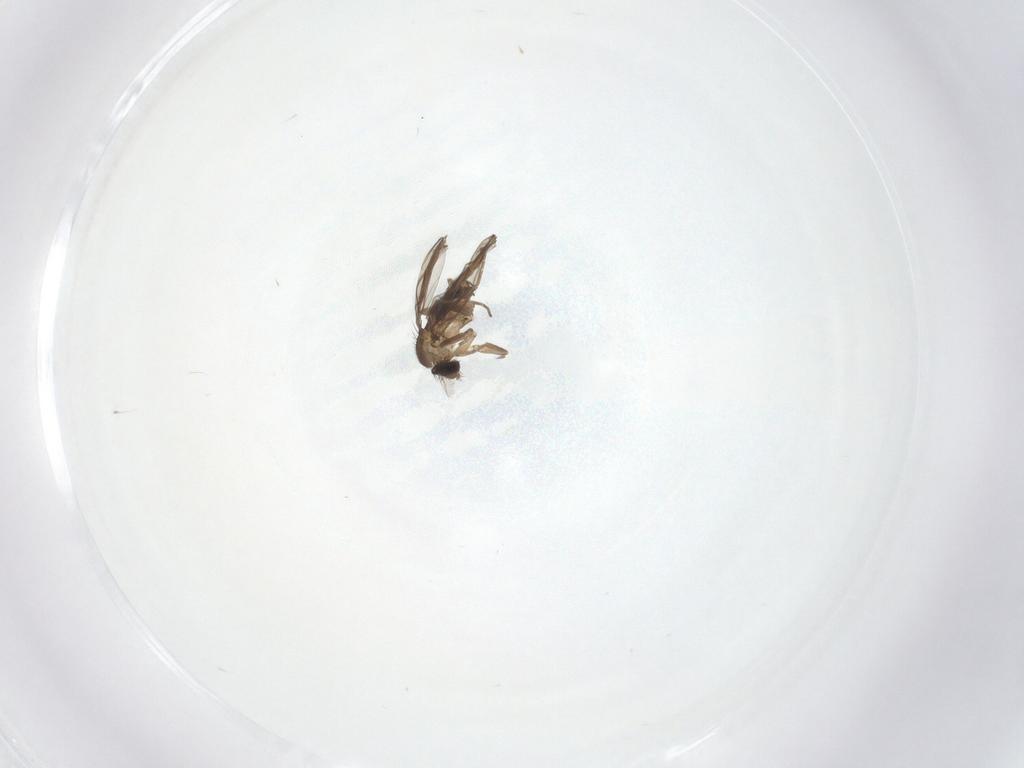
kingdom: Animalia
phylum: Arthropoda
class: Insecta
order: Diptera
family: Phoridae
